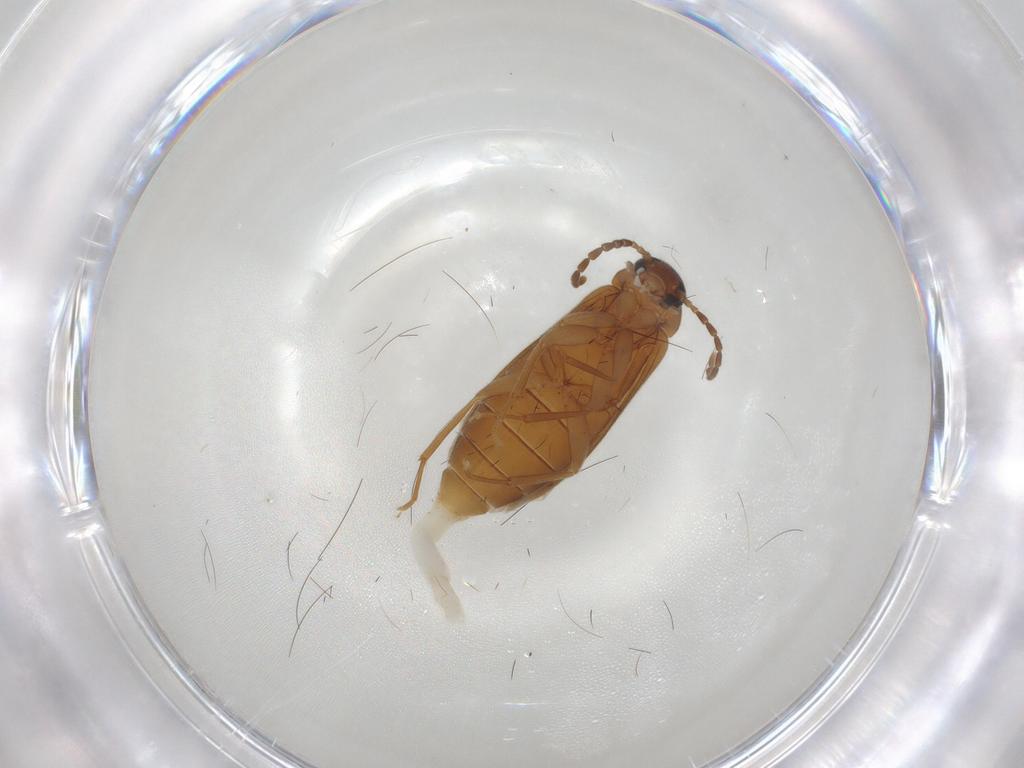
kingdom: Animalia
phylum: Arthropoda
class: Insecta
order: Coleoptera
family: Scraptiidae
